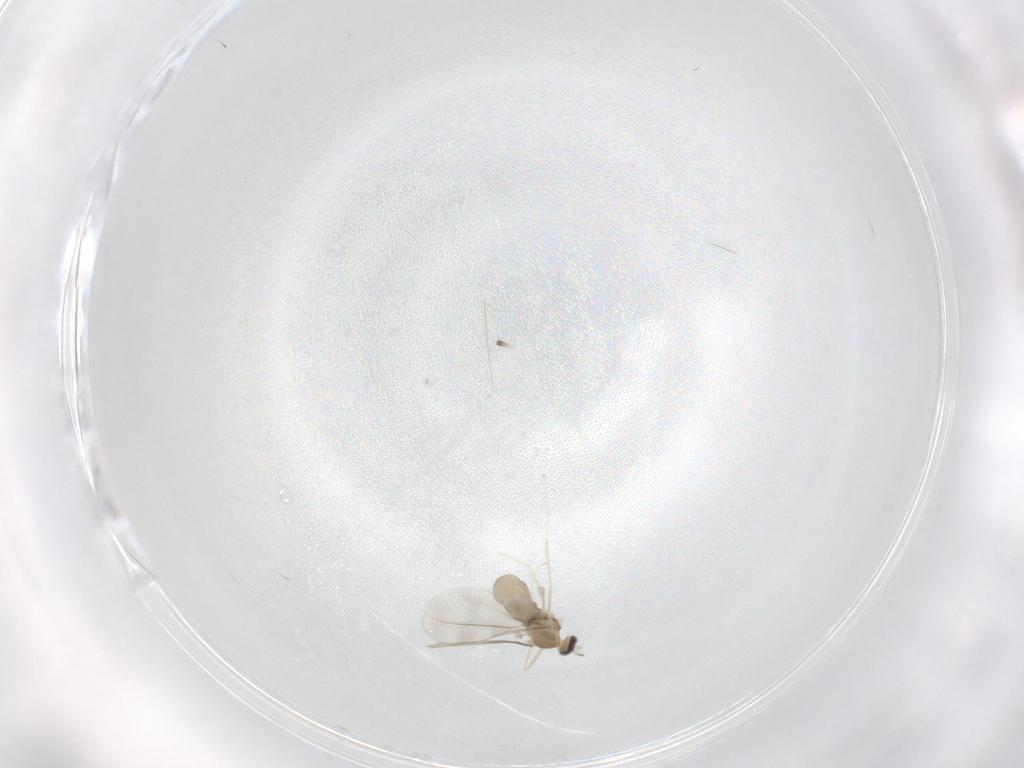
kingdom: Animalia
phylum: Arthropoda
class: Insecta
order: Diptera
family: Cecidomyiidae
